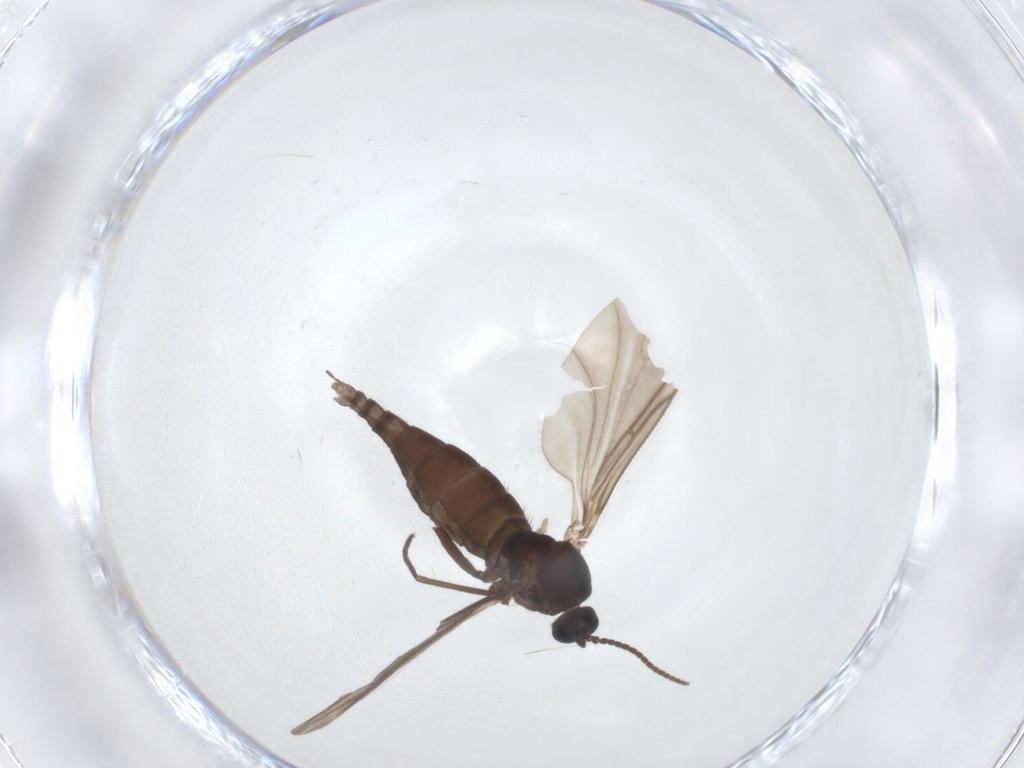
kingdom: Animalia
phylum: Arthropoda
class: Insecta
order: Diptera
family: Sciaridae
